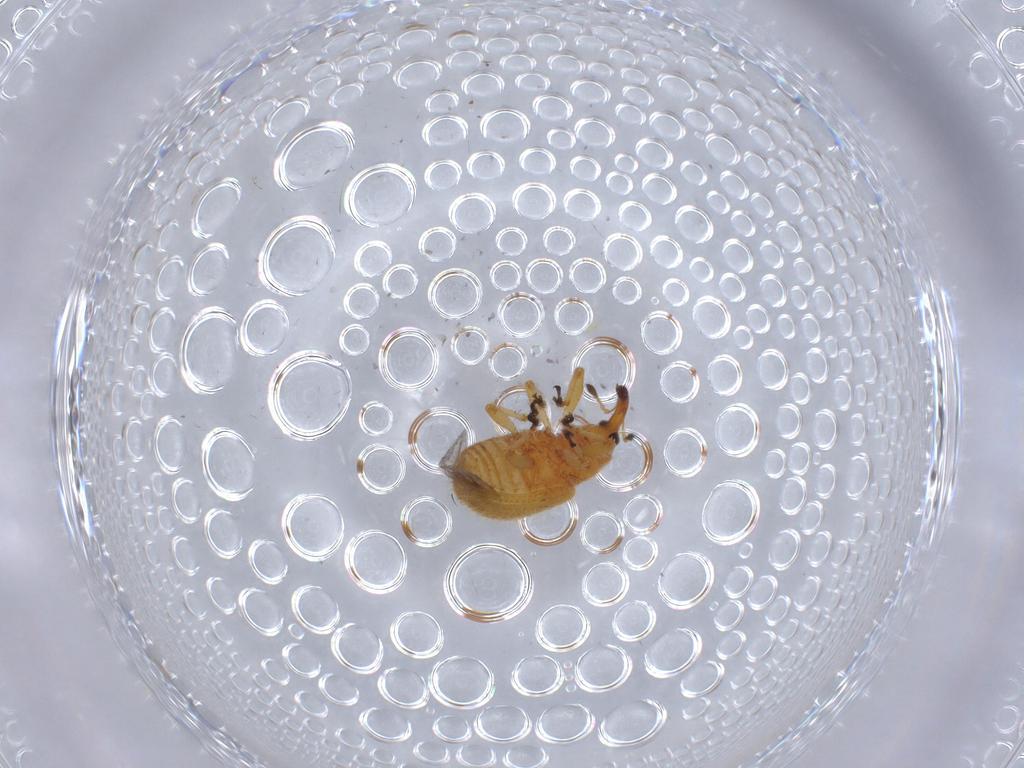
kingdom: Animalia
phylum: Arthropoda
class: Insecta
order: Coleoptera
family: Curculionidae
